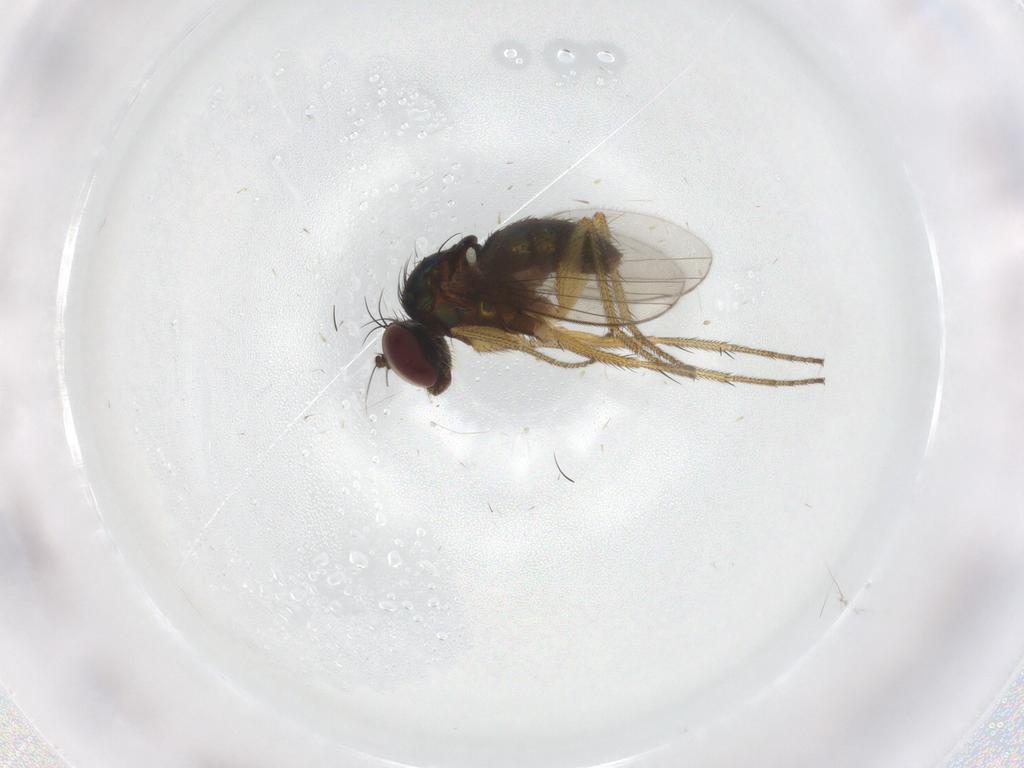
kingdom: Animalia
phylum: Arthropoda
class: Insecta
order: Diptera
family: Dolichopodidae
